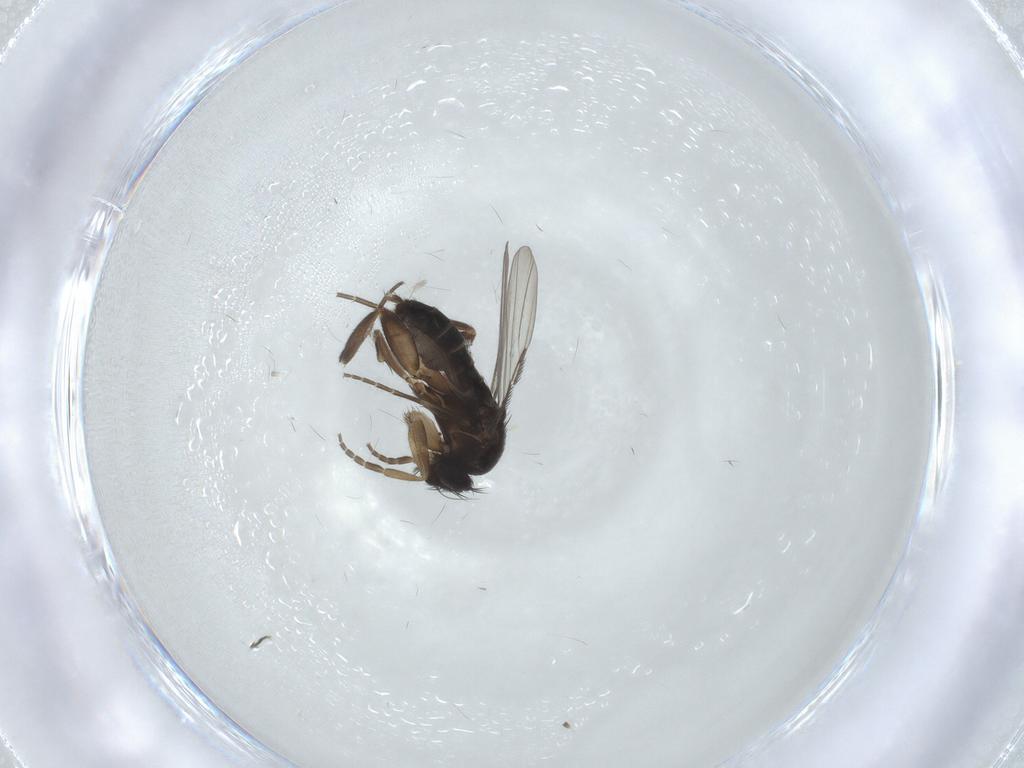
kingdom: Animalia
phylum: Arthropoda
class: Insecta
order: Diptera
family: Phoridae
